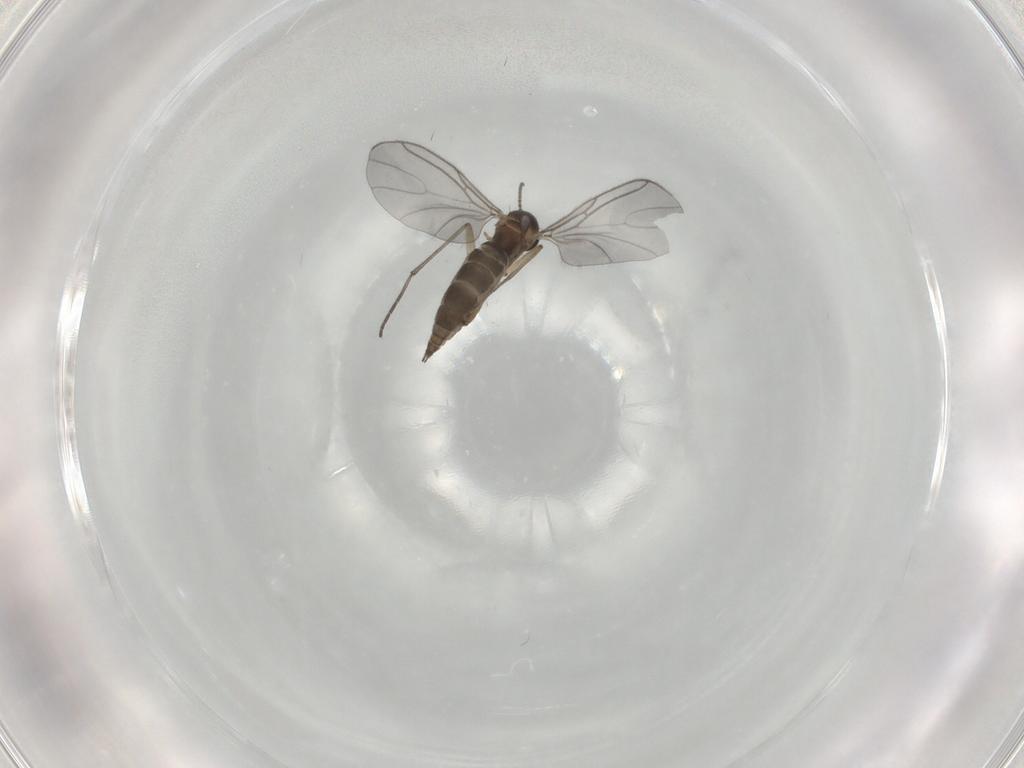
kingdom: Animalia
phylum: Arthropoda
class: Insecta
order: Diptera
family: Sciaridae
